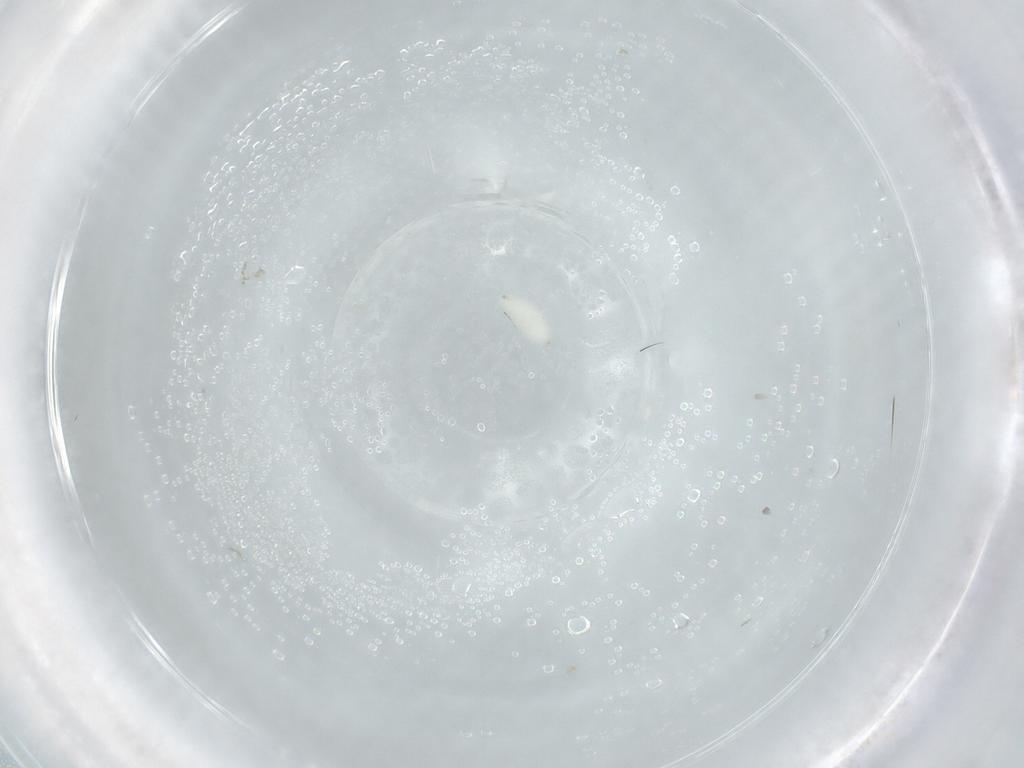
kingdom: Animalia
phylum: Arthropoda
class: Insecta
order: Diptera
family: Mycetophilidae
